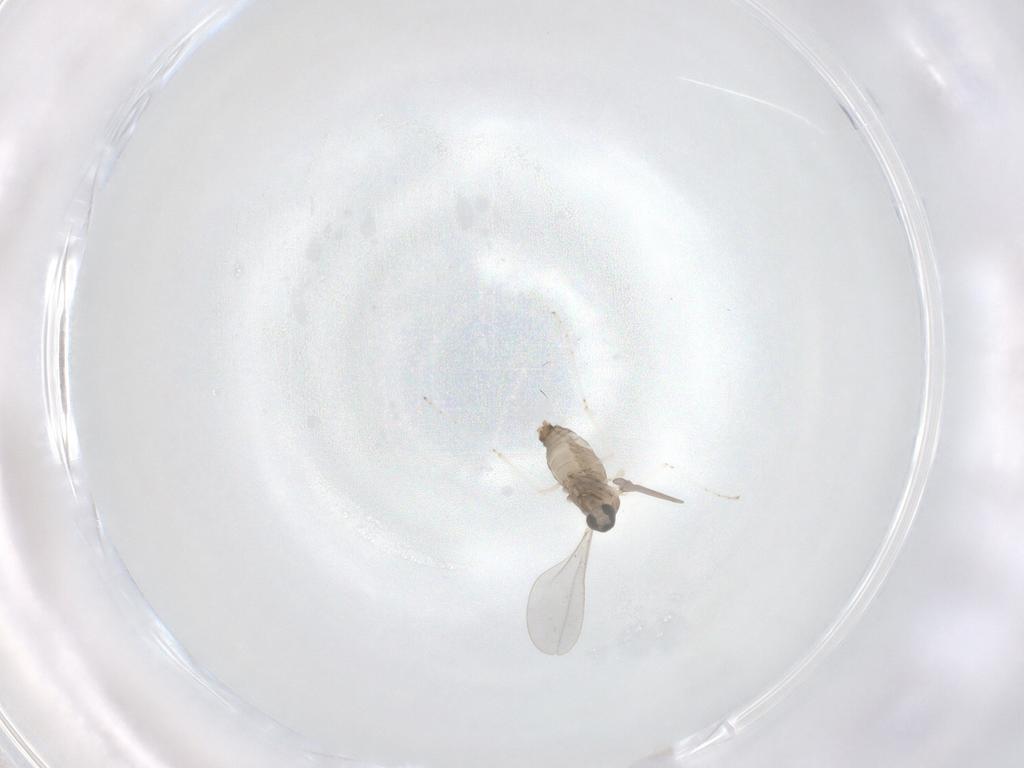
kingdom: Animalia
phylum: Arthropoda
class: Insecta
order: Diptera
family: Cecidomyiidae
